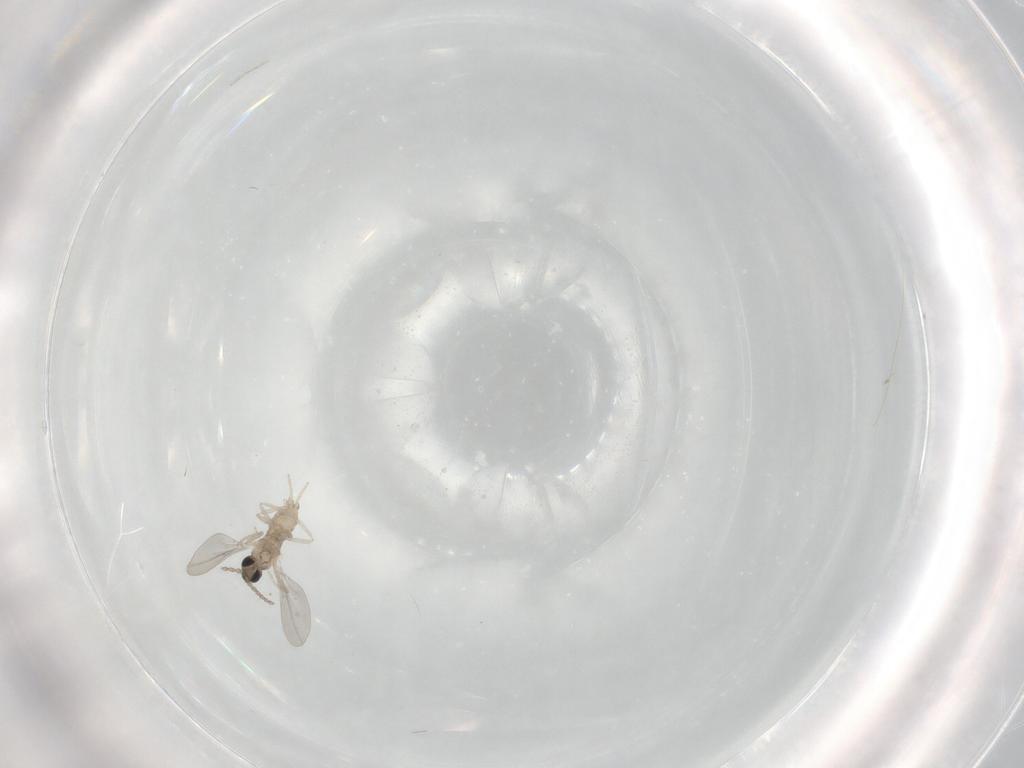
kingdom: Animalia
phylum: Arthropoda
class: Insecta
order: Diptera
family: Cecidomyiidae
